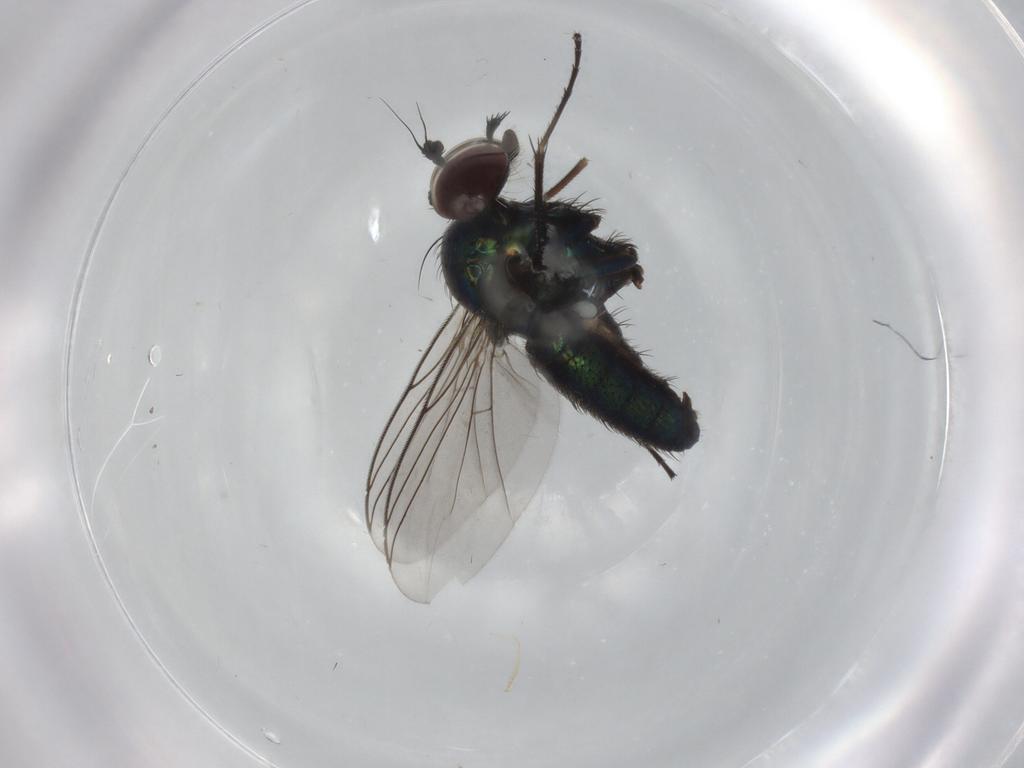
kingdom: Animalia
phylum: Arthropoda
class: Insecta
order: Diptera
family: Dolichopodidae
